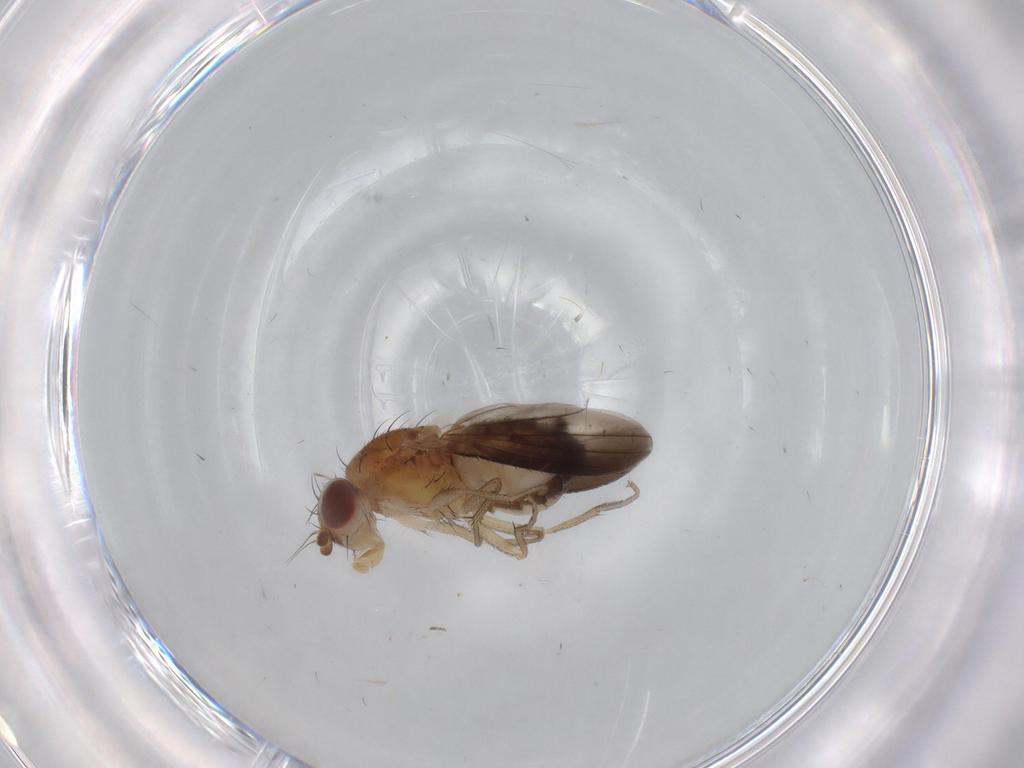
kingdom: Animalia
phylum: Arthropoda
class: Insecta
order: Diptera
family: Heleomyzidae
